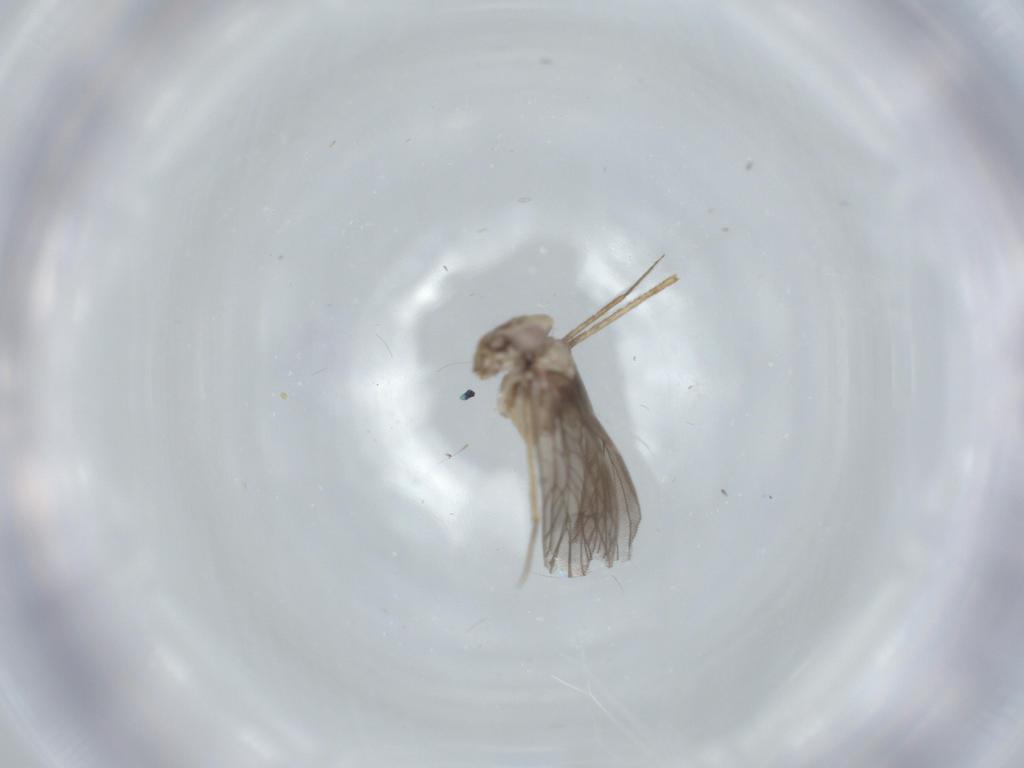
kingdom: Animalia
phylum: Arthropoda
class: Insecta
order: Psocodea
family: Lepidopsocidae
